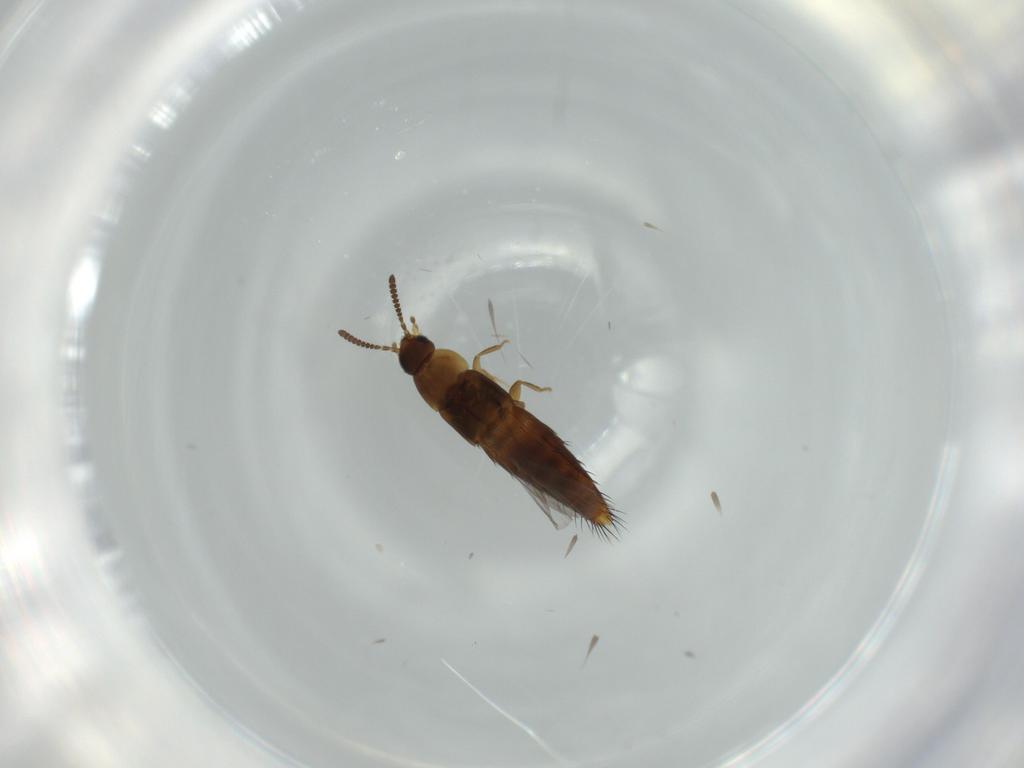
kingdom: Animalia
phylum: Arthropoda
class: Insecta
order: Coleoptera
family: Staphylinidae
